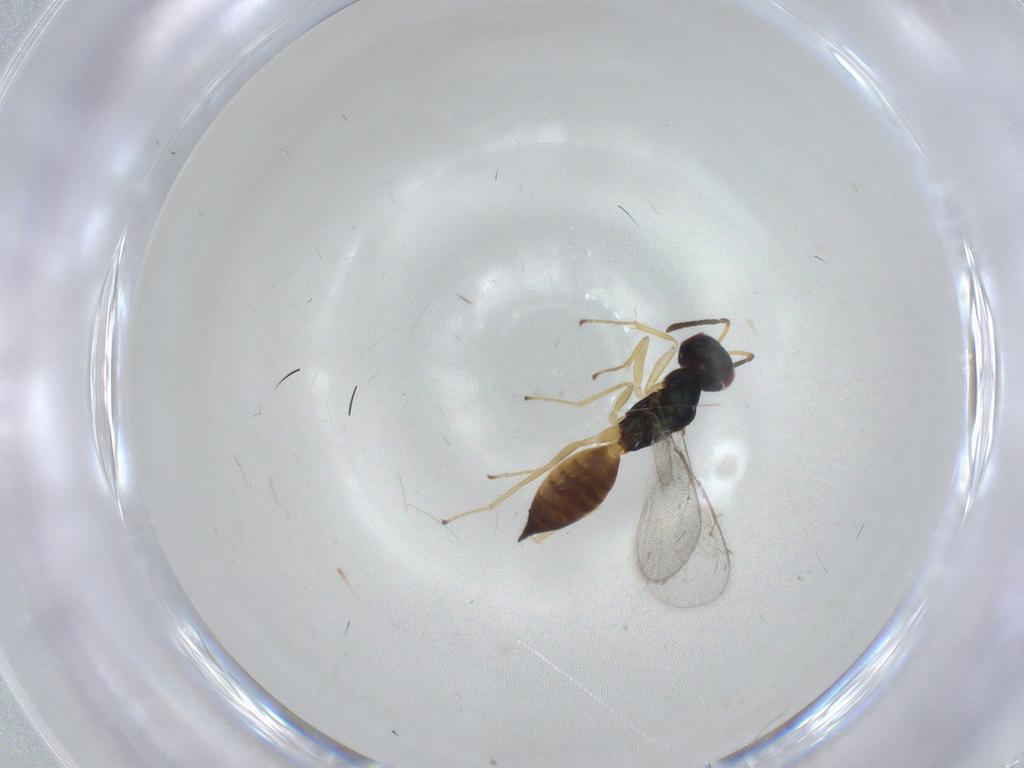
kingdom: Animalia
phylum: Arthropoda
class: Insecta
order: Hymenoptera
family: Pteromalidae
